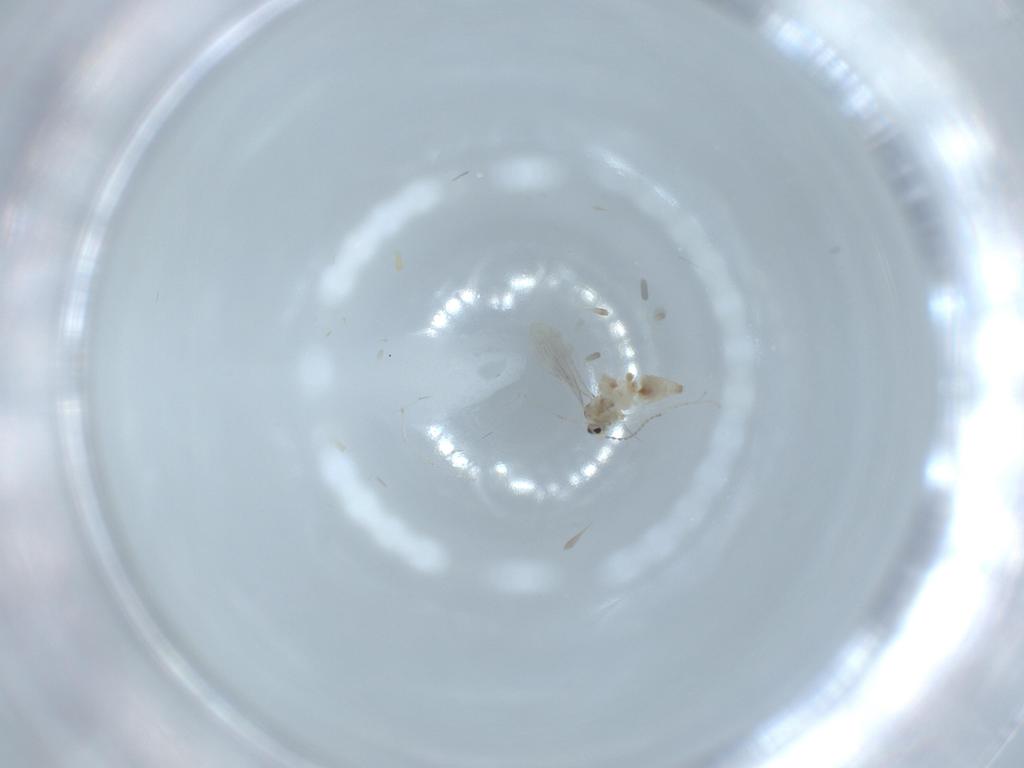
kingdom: Animalia
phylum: Arthropoda
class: Insecta
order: Diptera
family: Cecidomyiidae
